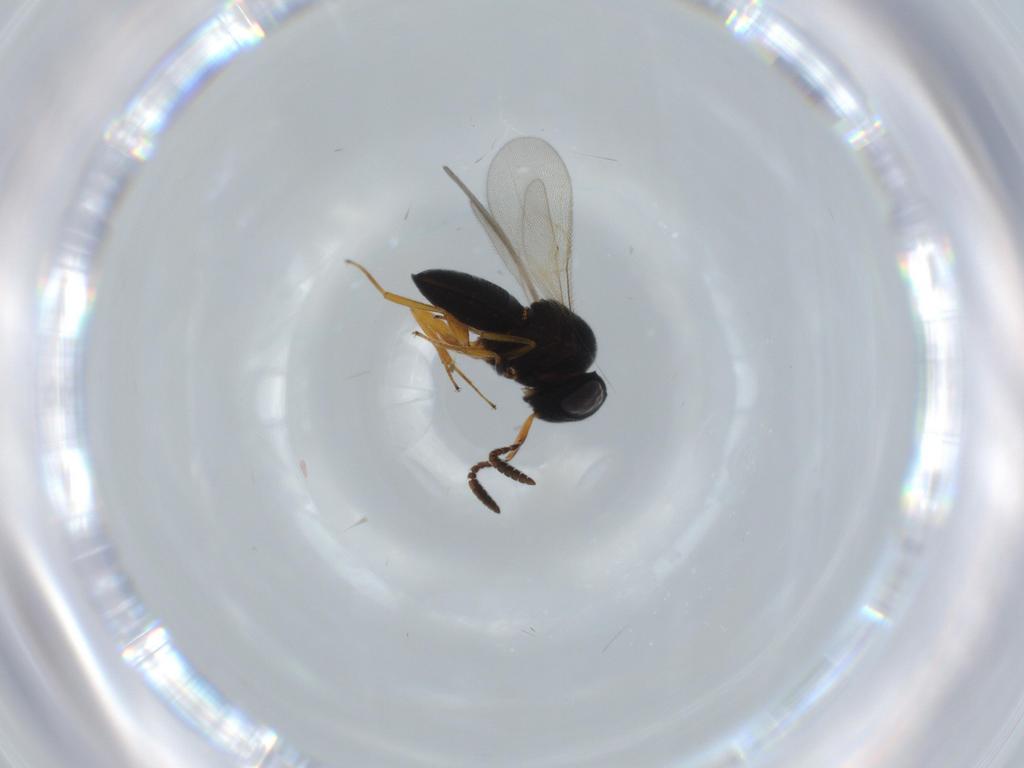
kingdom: Animalia
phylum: Arthropoda
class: Insecta
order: Hymenoptera
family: Scelionidae
